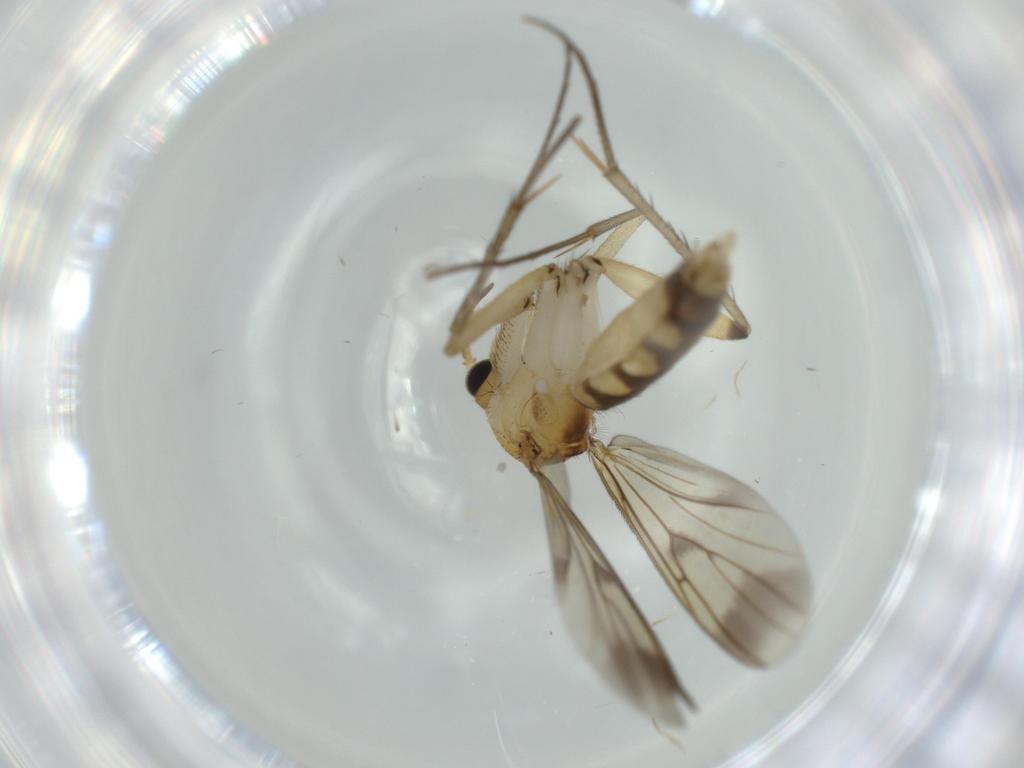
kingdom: Animalia
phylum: Arthropoda
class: Insecta
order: Diptera
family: Mycetophilidae
